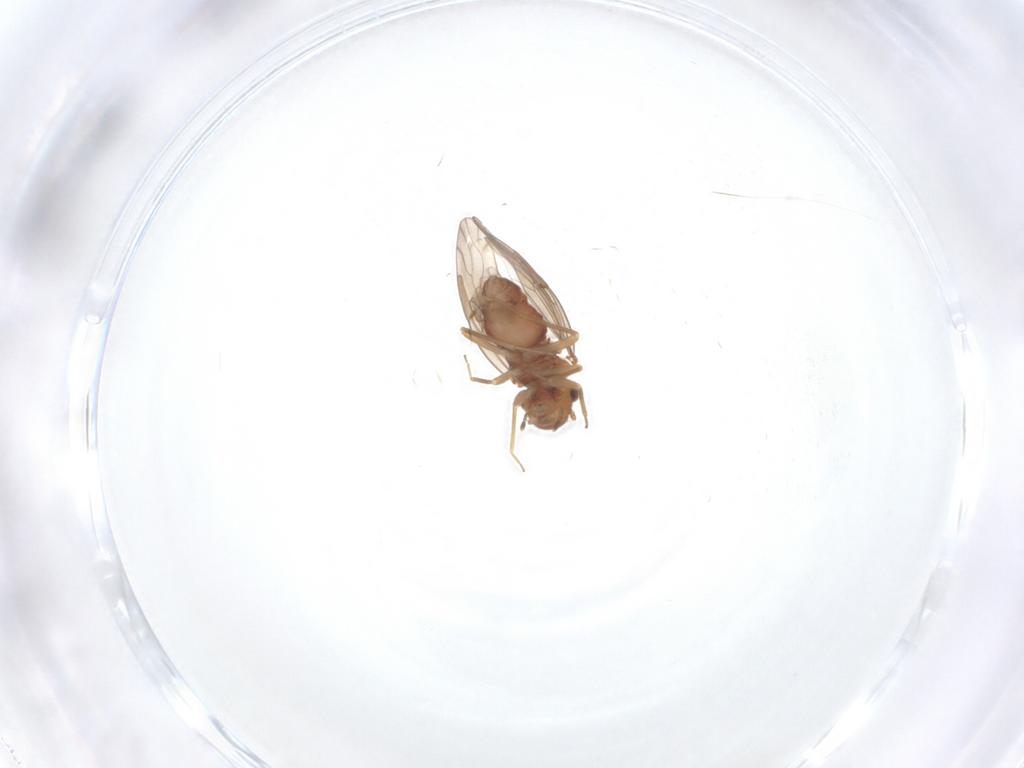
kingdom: Animalia
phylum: Arthropoda
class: Insecta
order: Psocodea
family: Ectopsocidae
